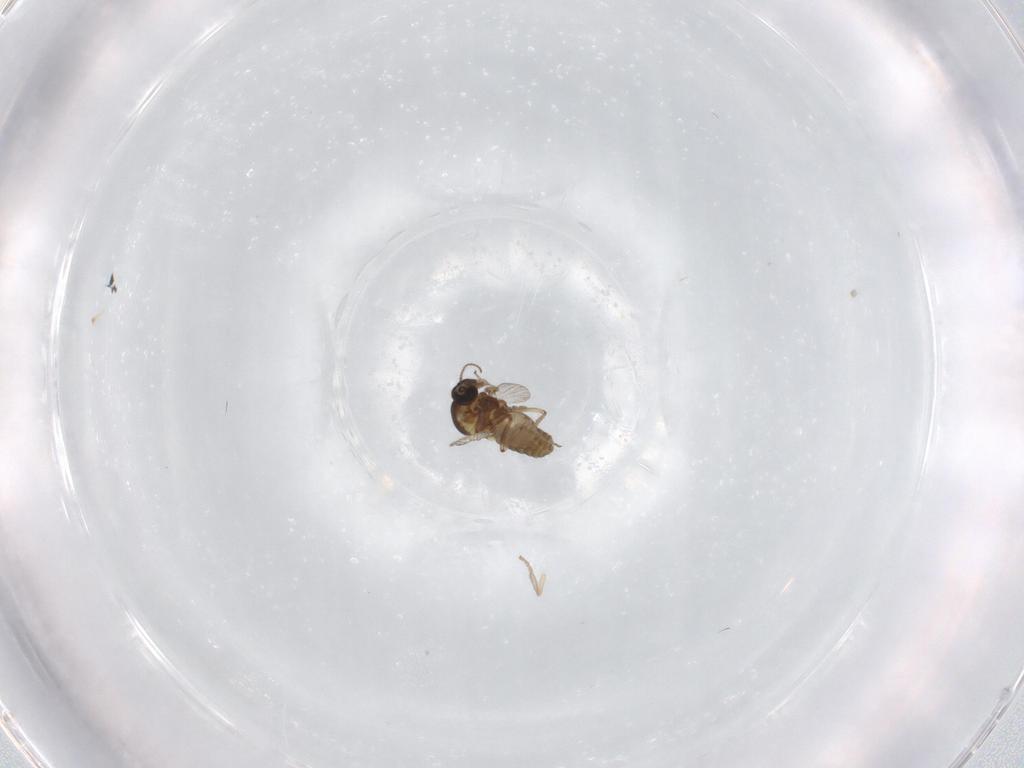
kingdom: Animalia
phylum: Arthropoda
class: Insecta
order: Diptera
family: Ceratopogonidae
